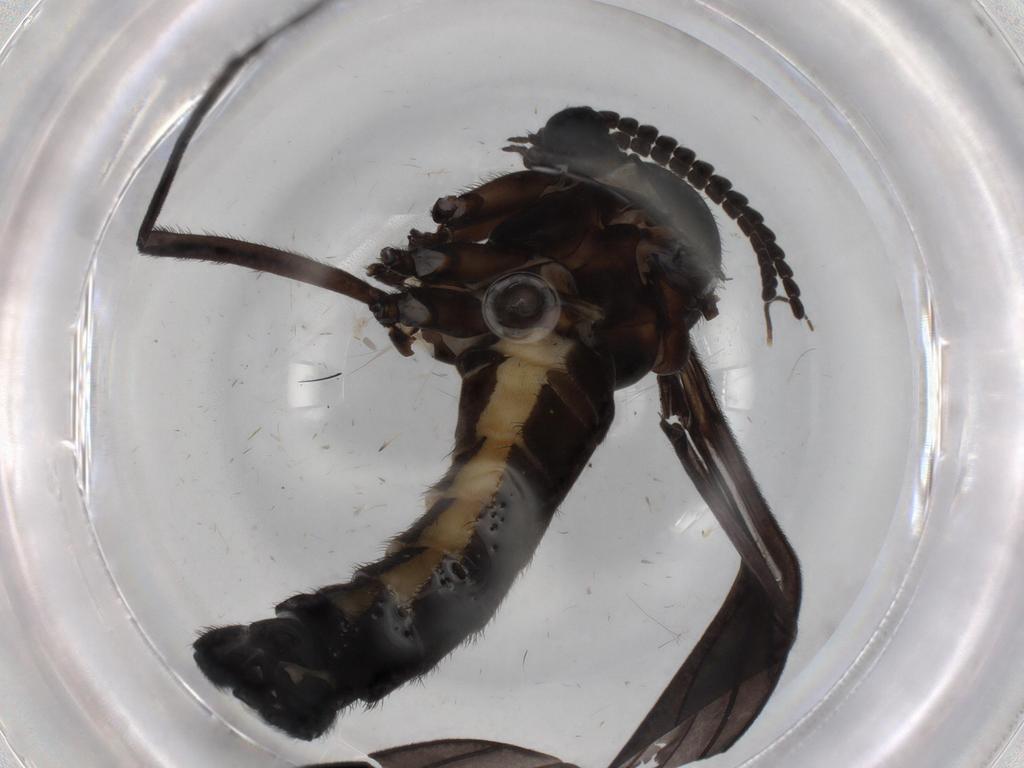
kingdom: Animalia
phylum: Arthropoda
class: Insecta
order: Diptera
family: Sciaridae
